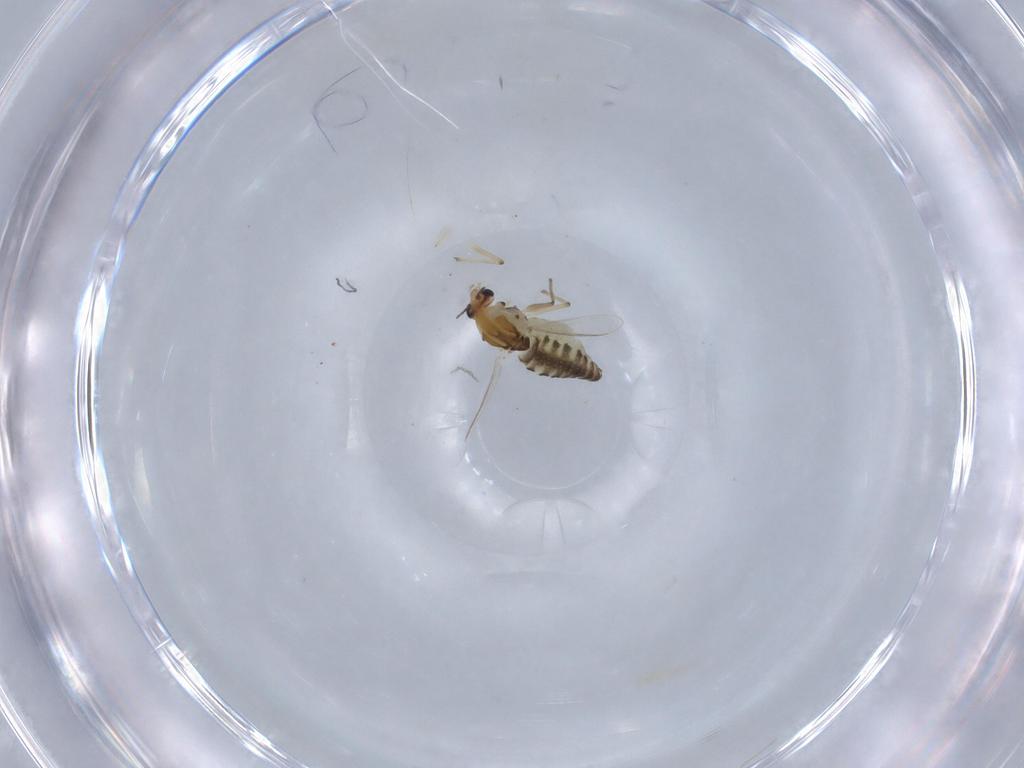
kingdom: Animalia
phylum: Arthropoda
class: Insecta
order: Diptera
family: Chironomidae
